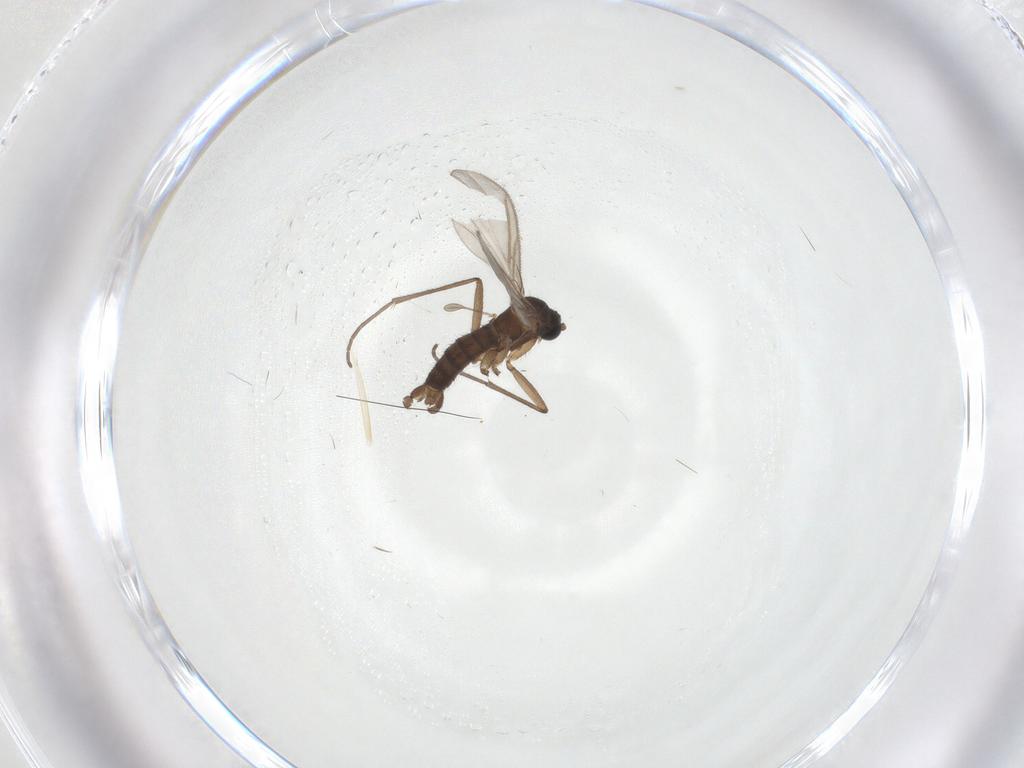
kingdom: Animalia
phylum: Arthropoda
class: Insecta
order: Diptera
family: Sciaridae
